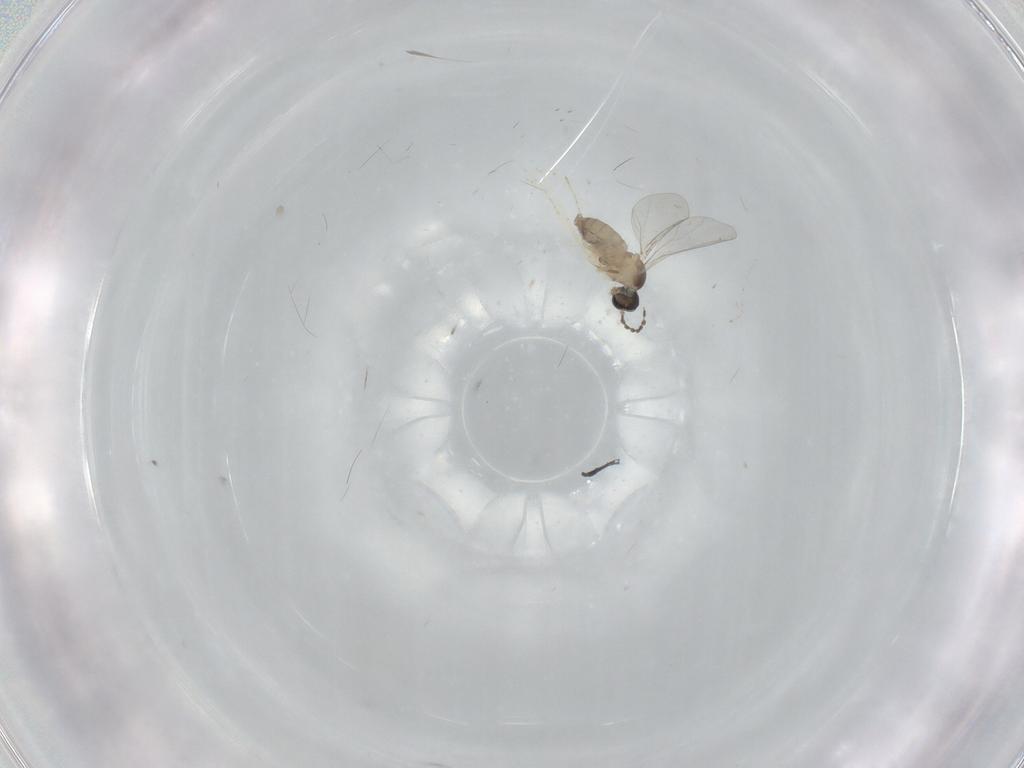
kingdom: Animalia
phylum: Arthropoda
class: Insecta
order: Diptera
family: Cecidomyiidae
